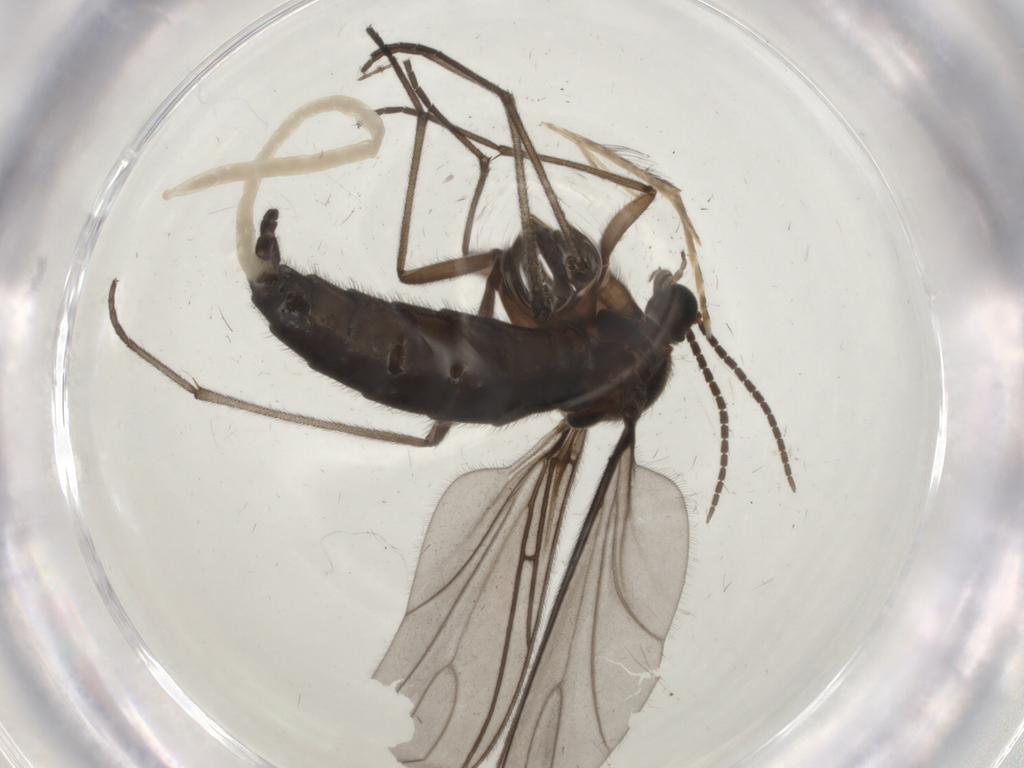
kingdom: Animalia
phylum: Arthropoda
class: Insecta
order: Diptera
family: Sciaridae
